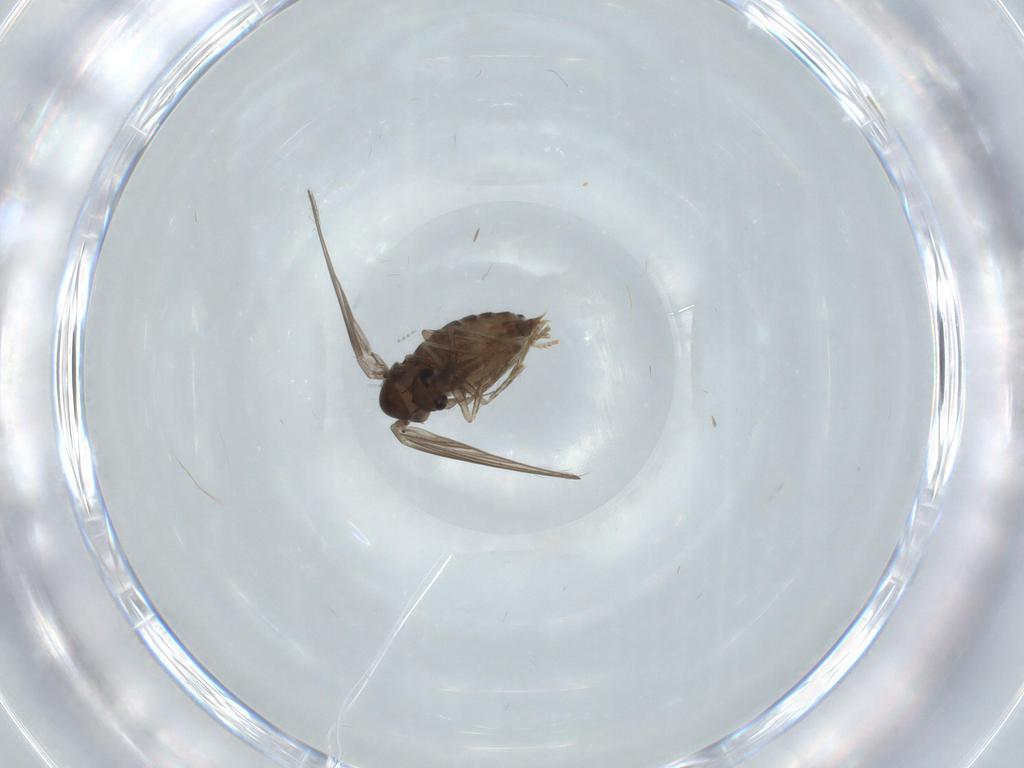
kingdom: Animalia
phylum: Arthropoda
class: Insecta
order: Diptera
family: Psychodidae
